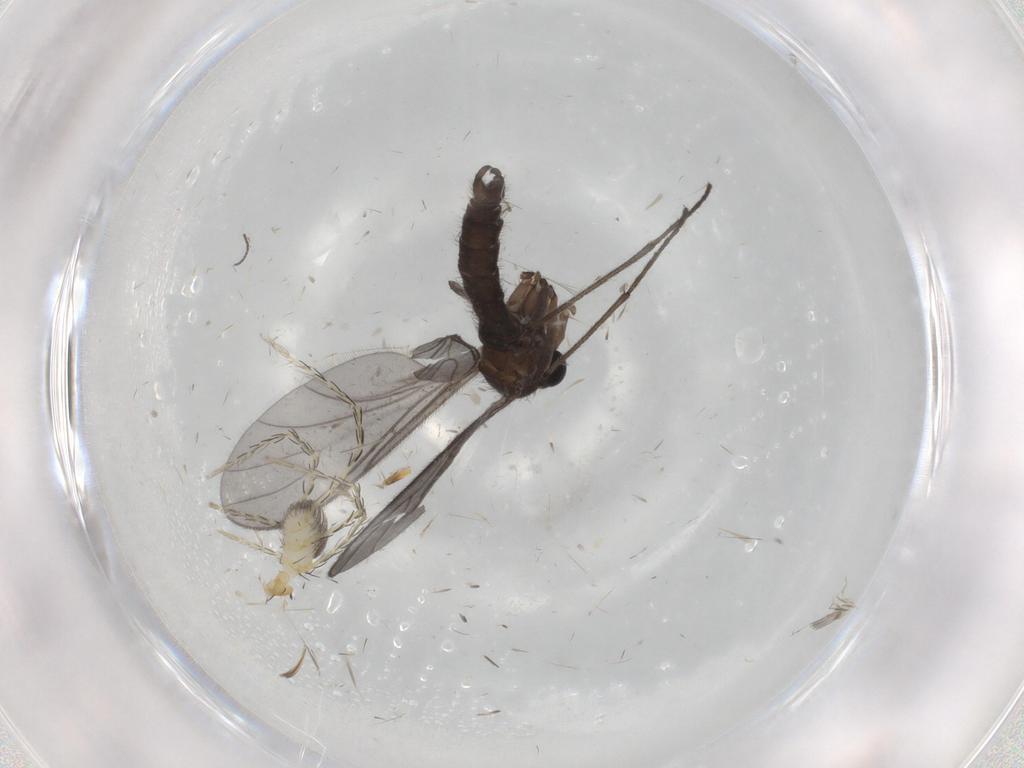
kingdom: Animalia
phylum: Arthropoda
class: Insecta
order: Diptera
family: Sciaridae
